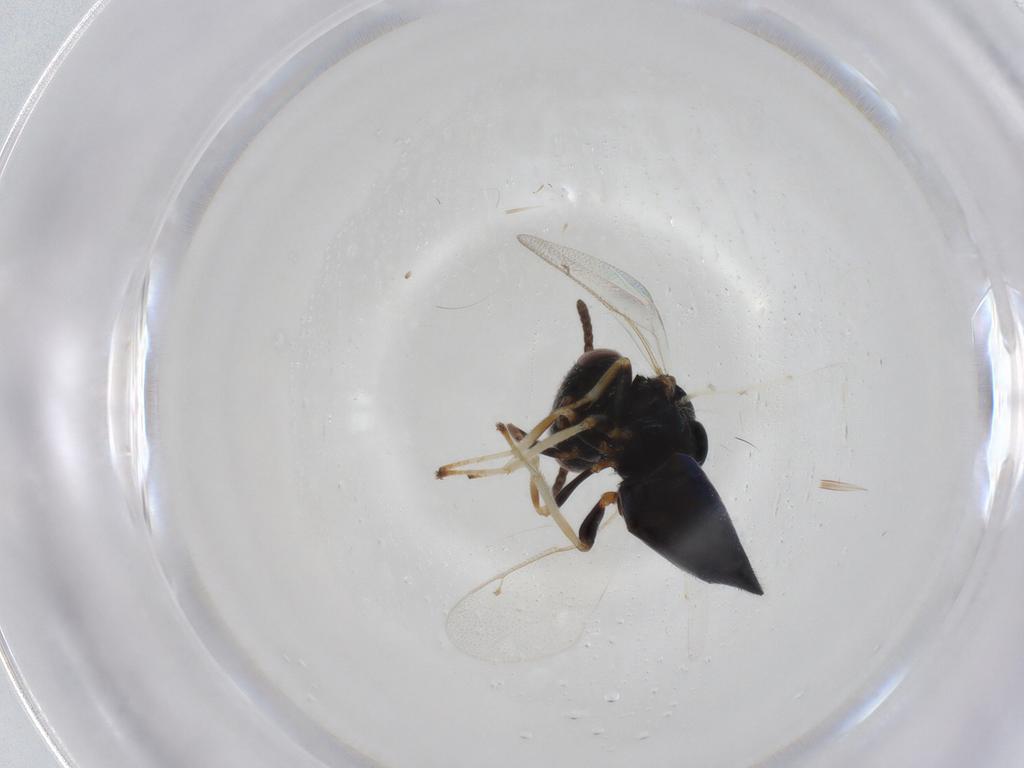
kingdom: Animalia
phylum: Arthropoda
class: Insecta
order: Hymenoptera
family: Pteromalidae
